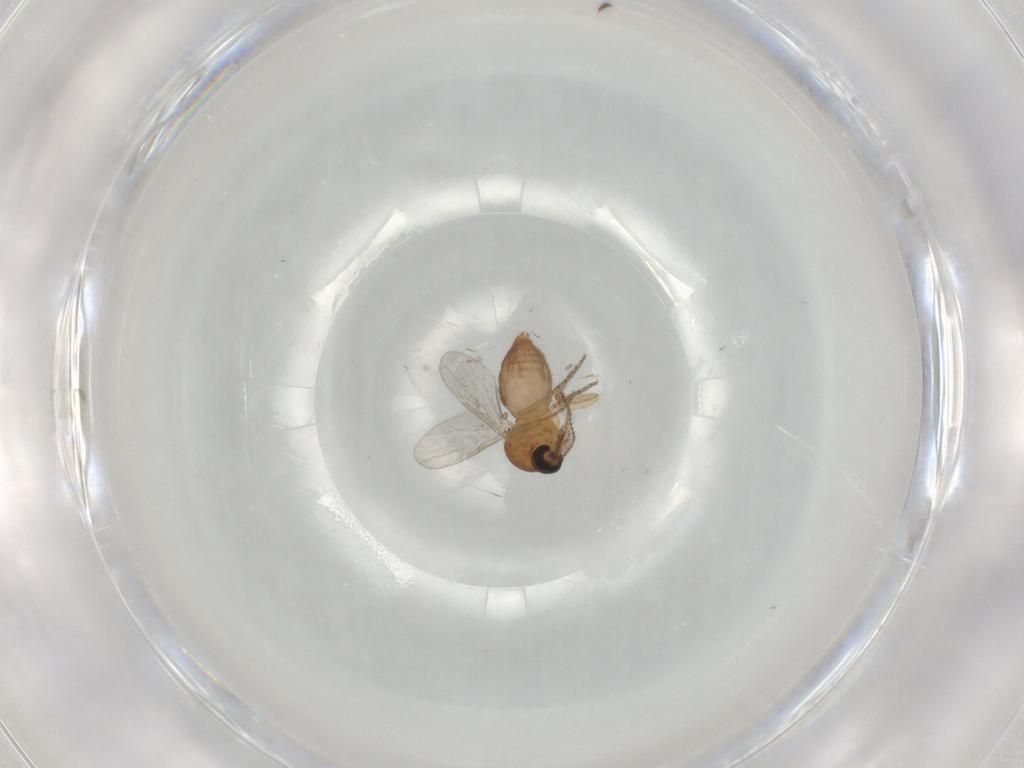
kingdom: Animalia
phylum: Arthropoda
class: Insecta
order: Diptera
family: Ceratopogonidae
